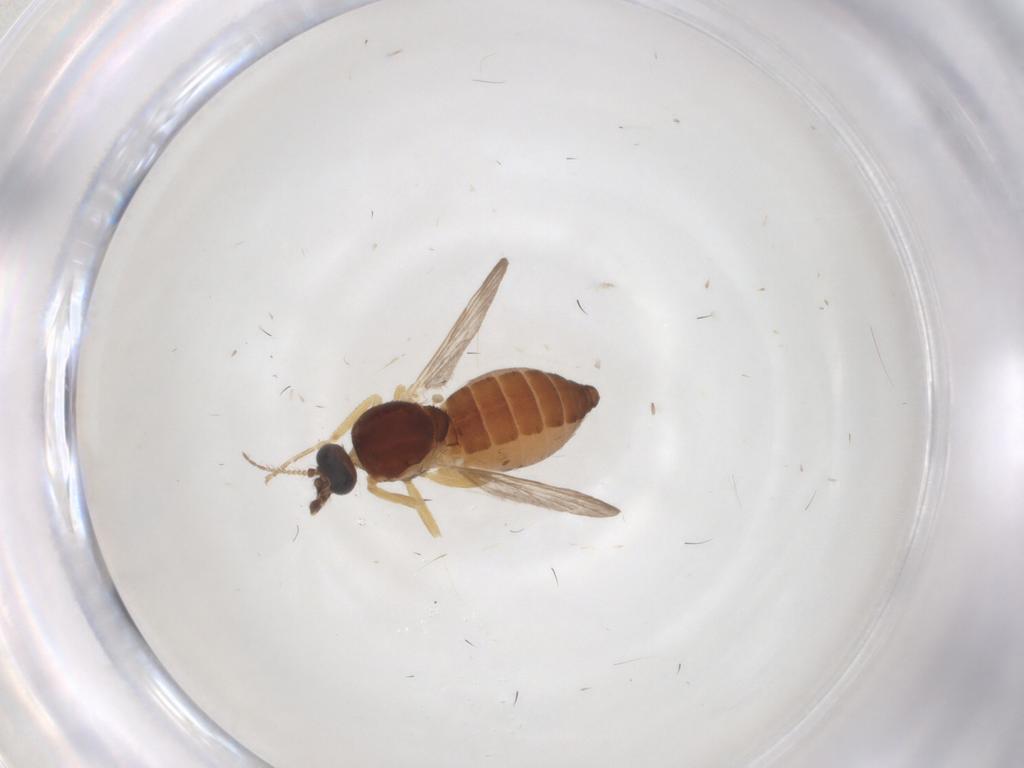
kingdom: Animalia
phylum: Arthropoda
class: Insecta
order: Diptera
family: Ceratopogonidae
